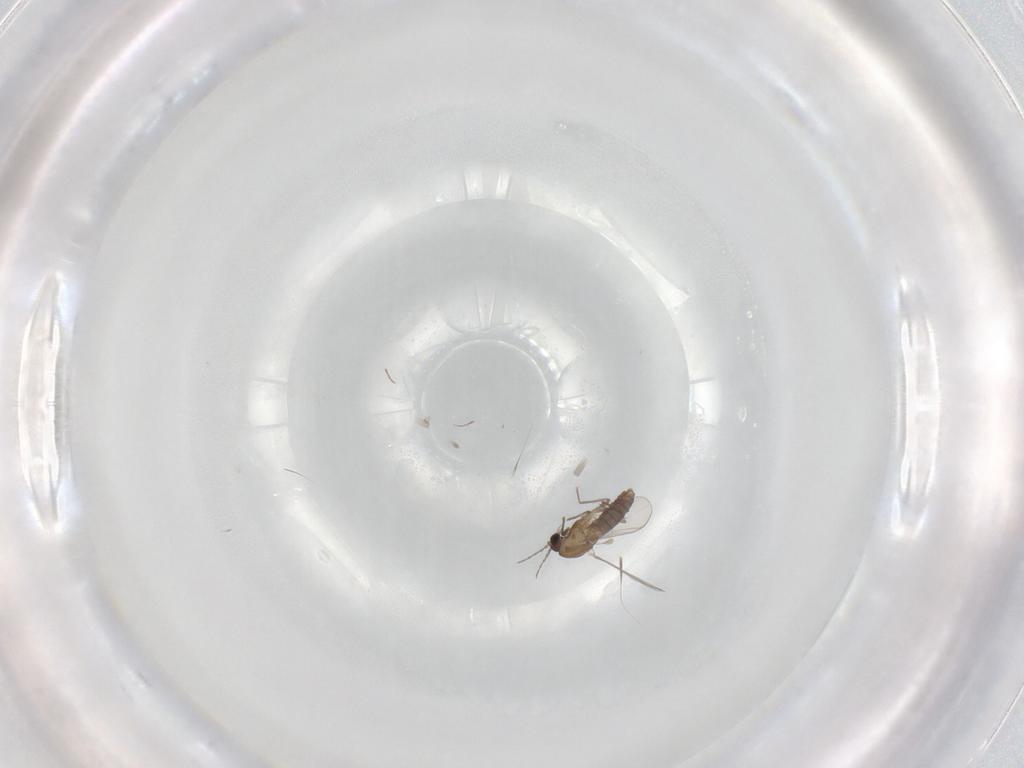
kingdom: Animalia
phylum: Arthropoda
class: Insecta
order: Diptera
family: Chironomidae
